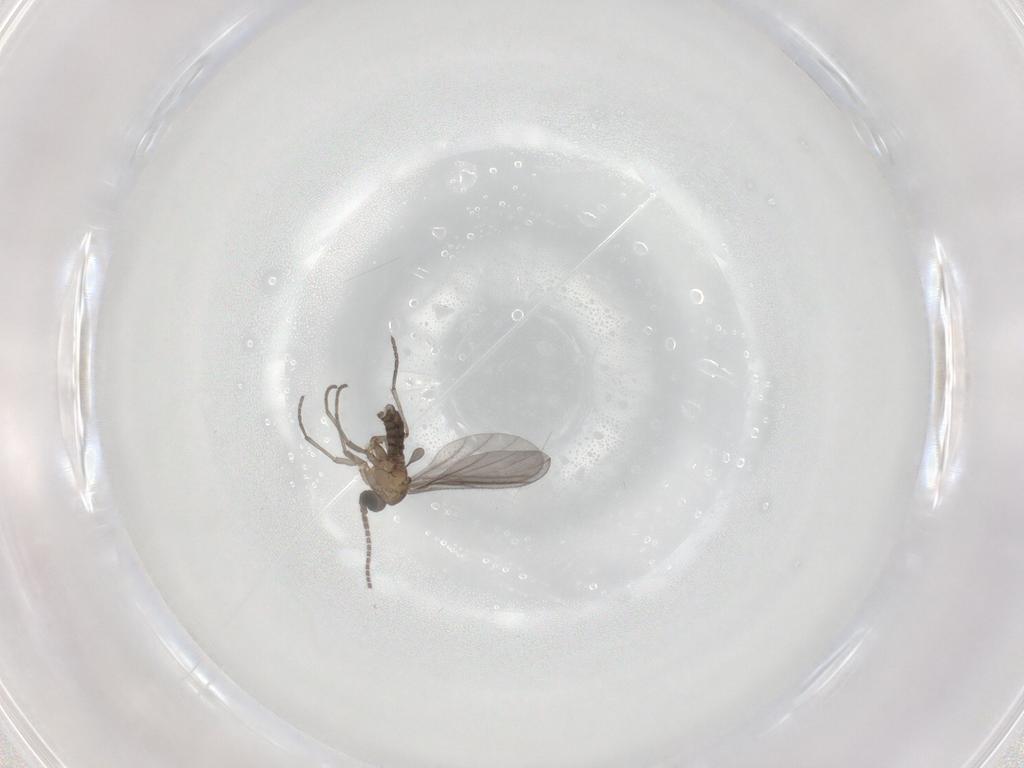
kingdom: Animalia
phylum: Arthropoda
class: Insecta
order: Diptera
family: Sciaridae
